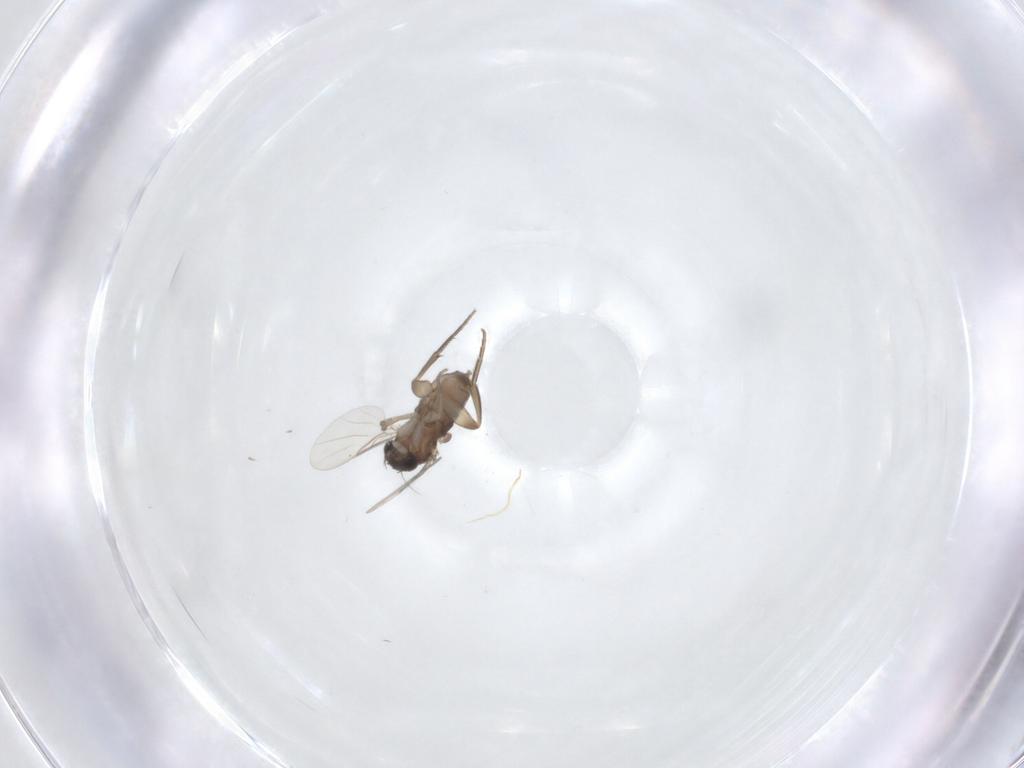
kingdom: Animalia
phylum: Arthropoda
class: Insecta
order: Diptera
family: Phoridae
